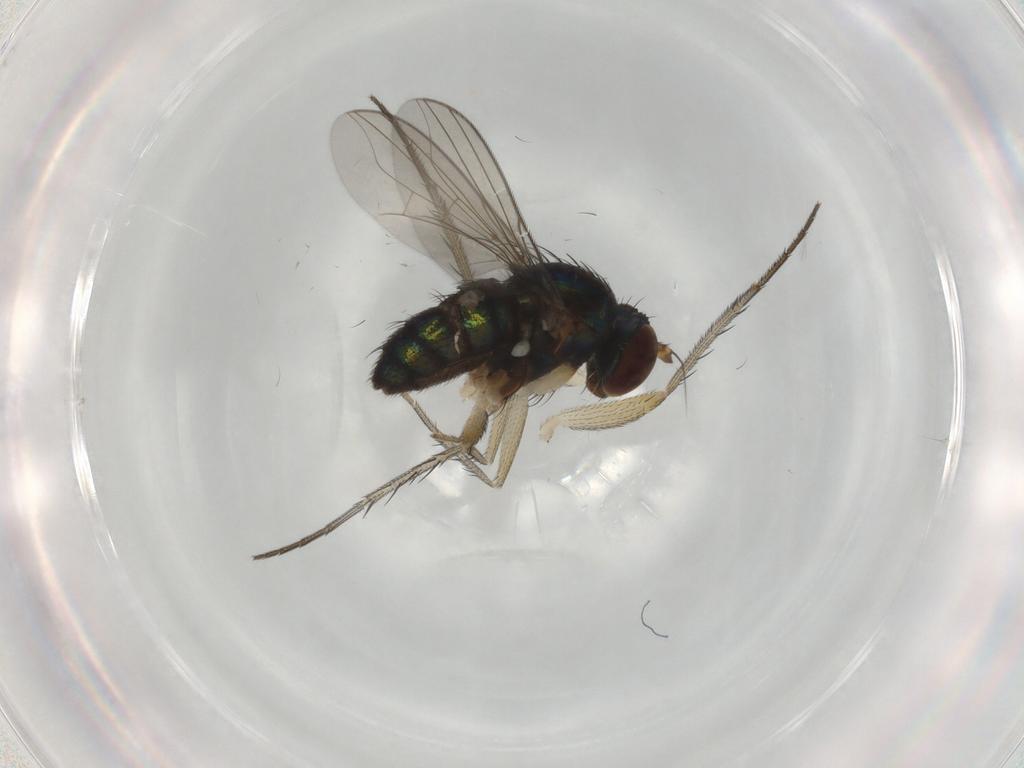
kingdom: Animalia
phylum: Arthropoda
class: Insecta
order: Diptera
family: Dolichopodidae
